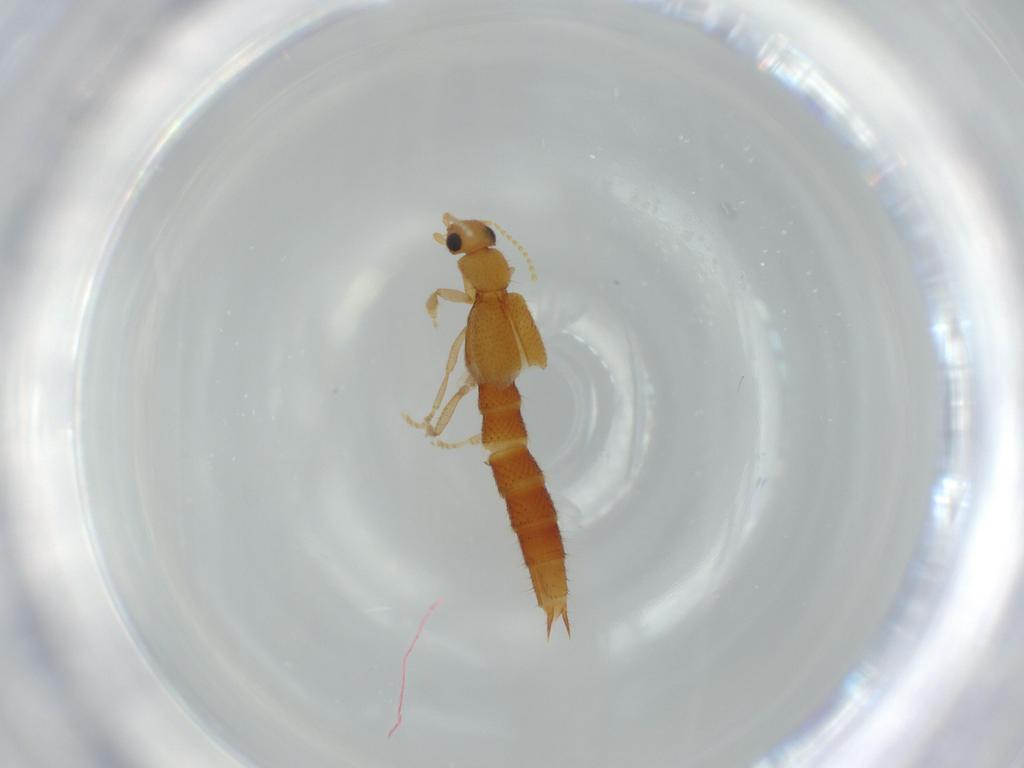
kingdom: Animalia
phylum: Arthropoda
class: Insecta
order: Coleoptera
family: Staphylinidae
